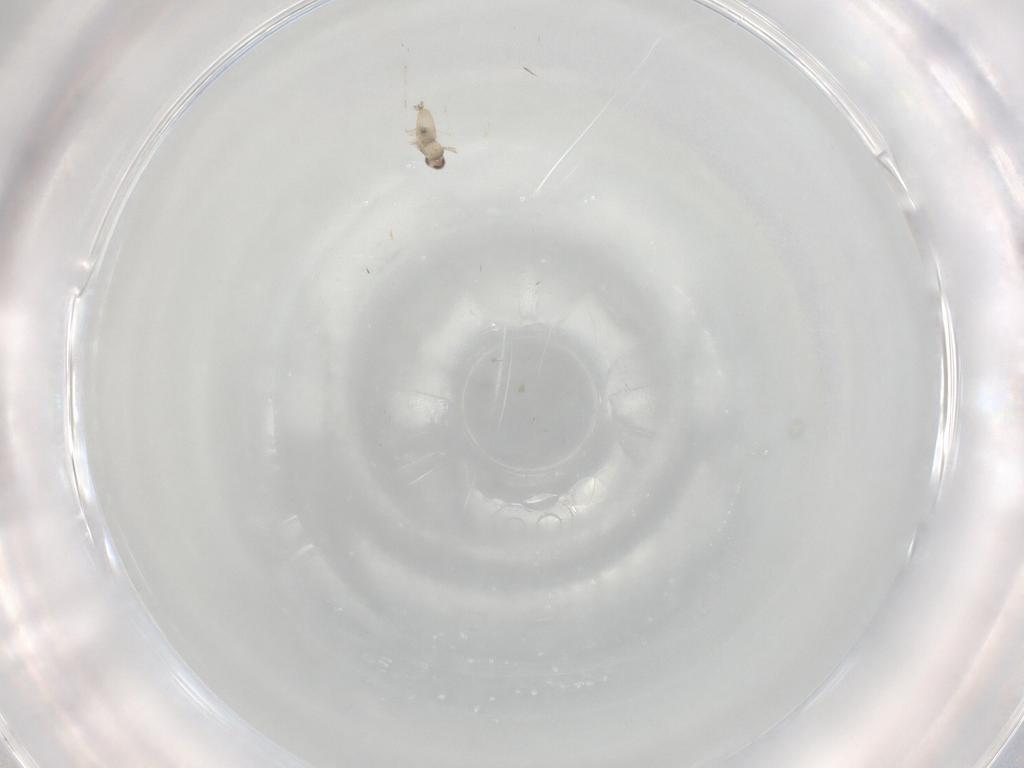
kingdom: Animalia
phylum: Arthropoda
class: Insecta
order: Diptera
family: Cecidomyiidae
